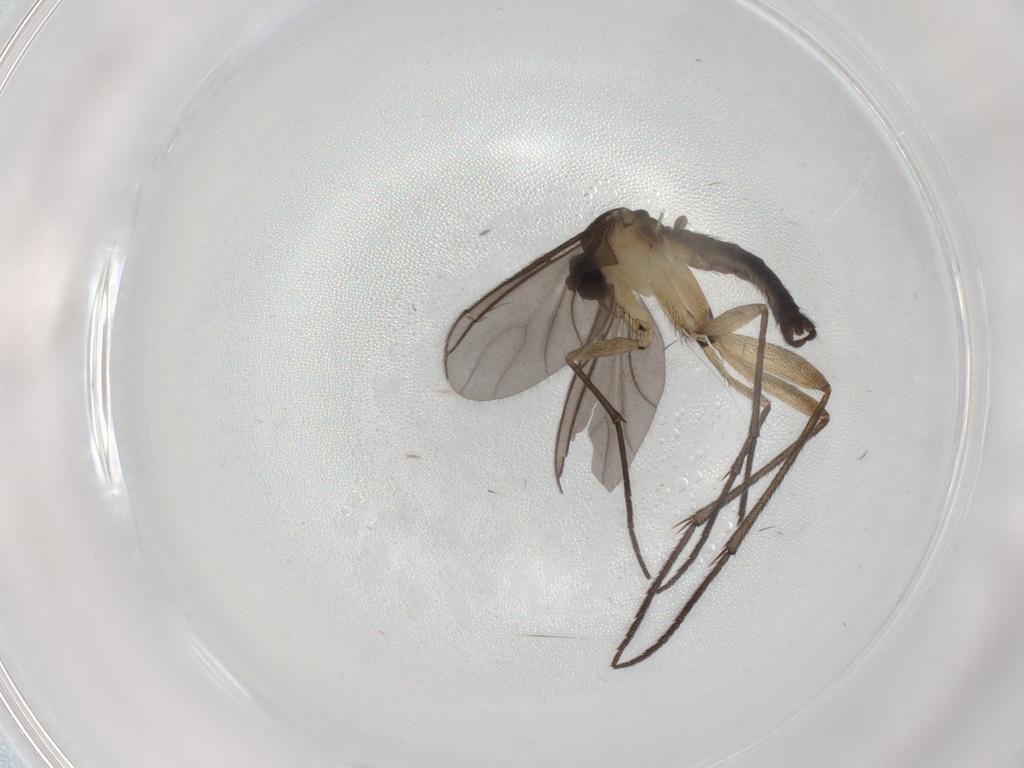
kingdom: Animalia
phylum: Arthropoda
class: Insecta
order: Diptera
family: Sciaridae
